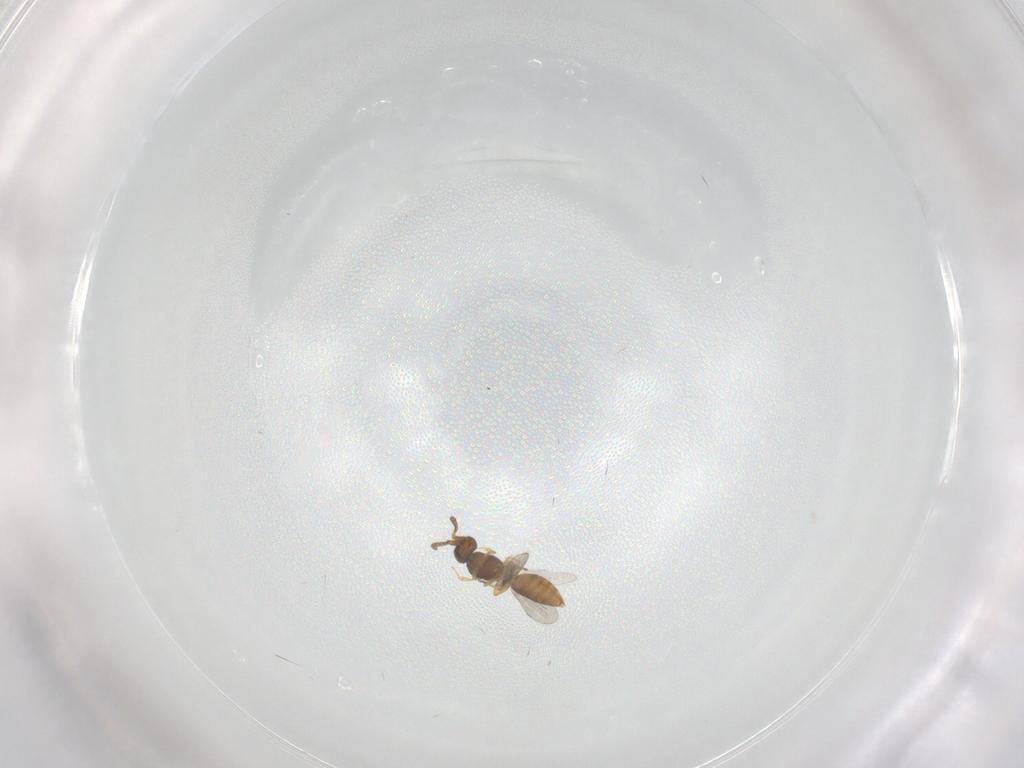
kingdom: Animalia
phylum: Arthropoda
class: Insecta
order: Hymenoptera
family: Megaspilidae
